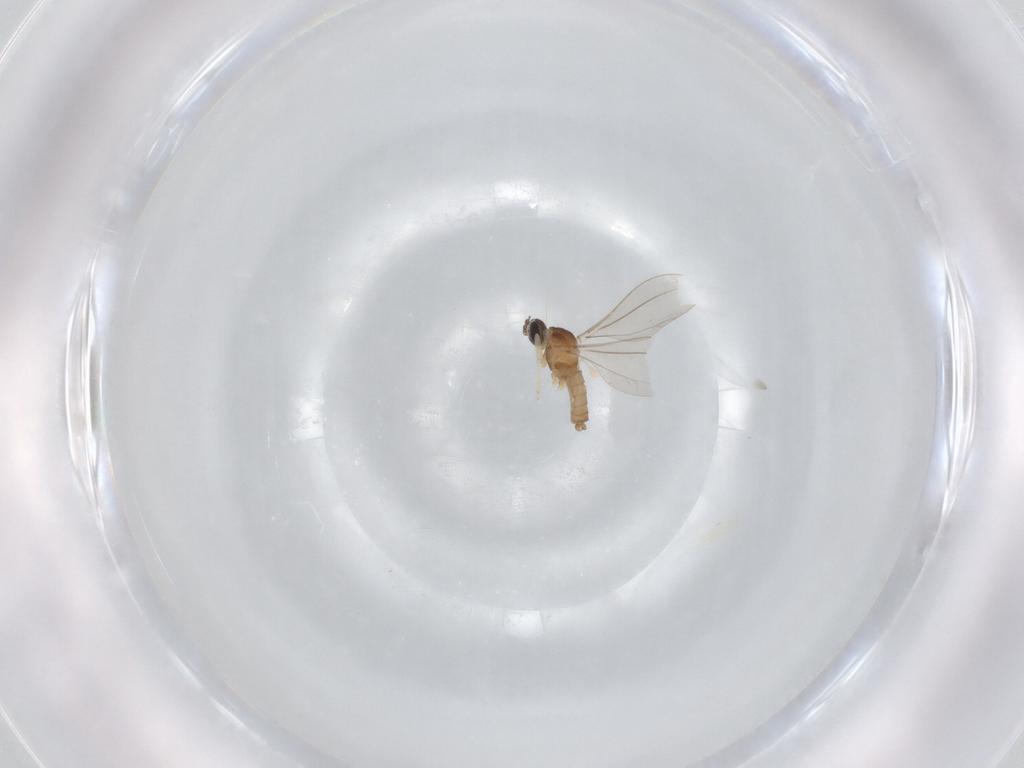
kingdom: Animalia
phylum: Arthropoda
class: Insecta
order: Diptera
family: Cecidomyiidae
